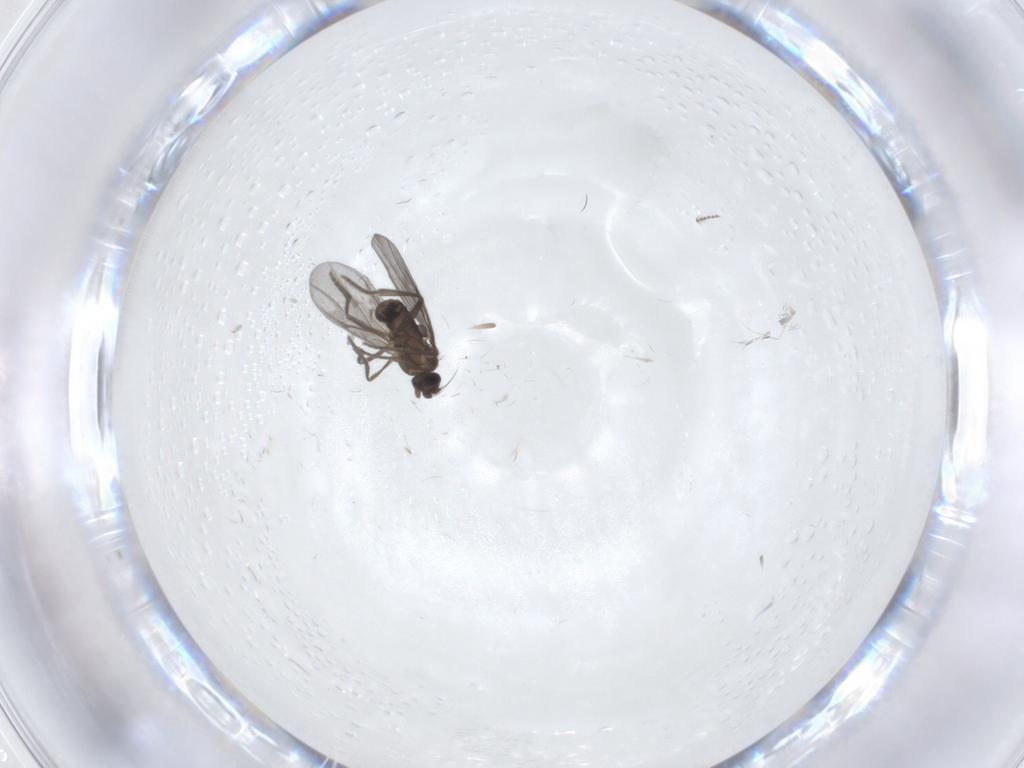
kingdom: Animalia
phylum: Arthropoda
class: Insecta
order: Diptera
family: Phoridae
